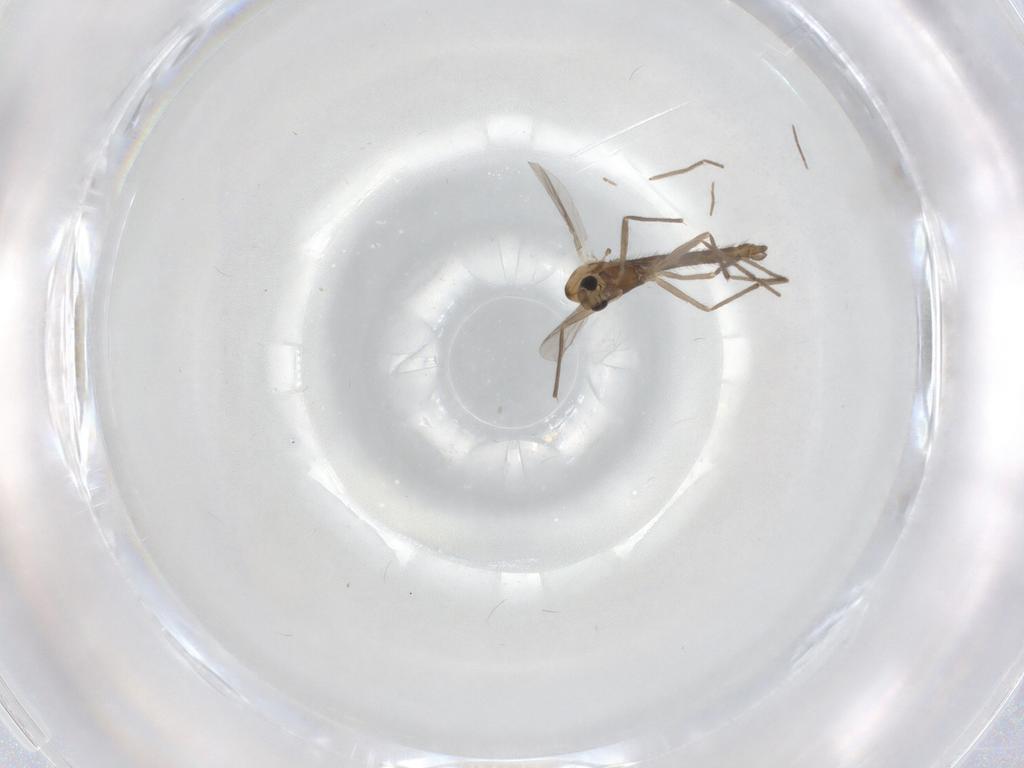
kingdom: Animalia
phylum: Arthropoda
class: Insecta
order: Diptera
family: Chironomidae
